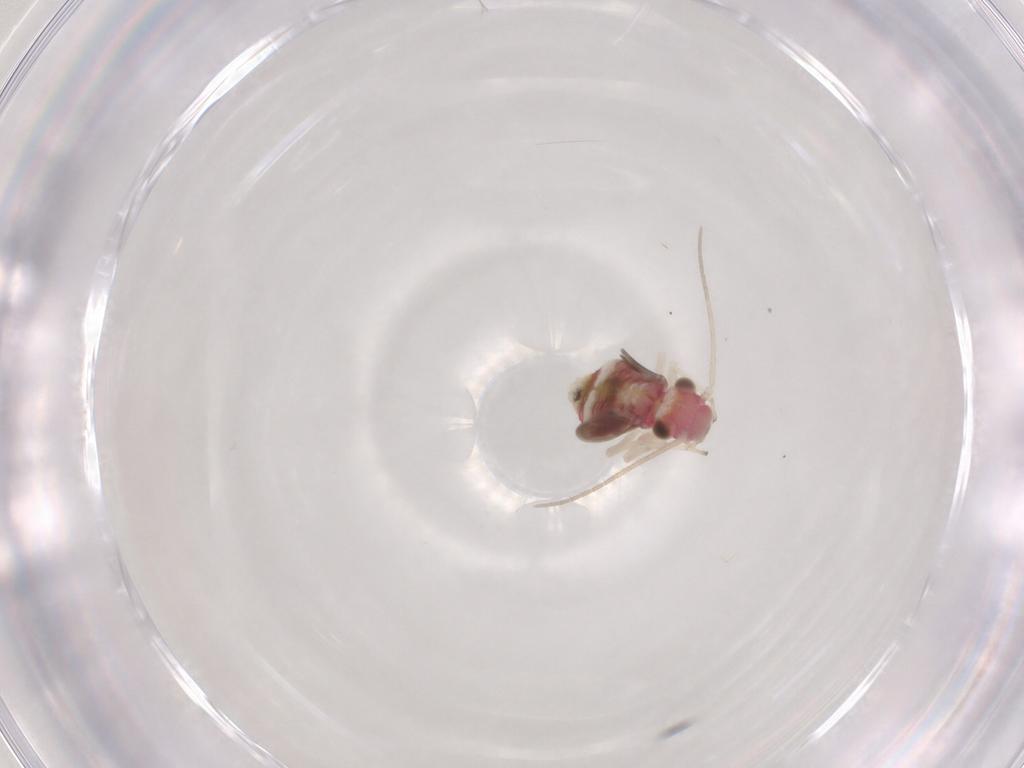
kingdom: Animalia
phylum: Arthropoda
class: Insecta
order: Psocodea
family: Caeciliusidae
